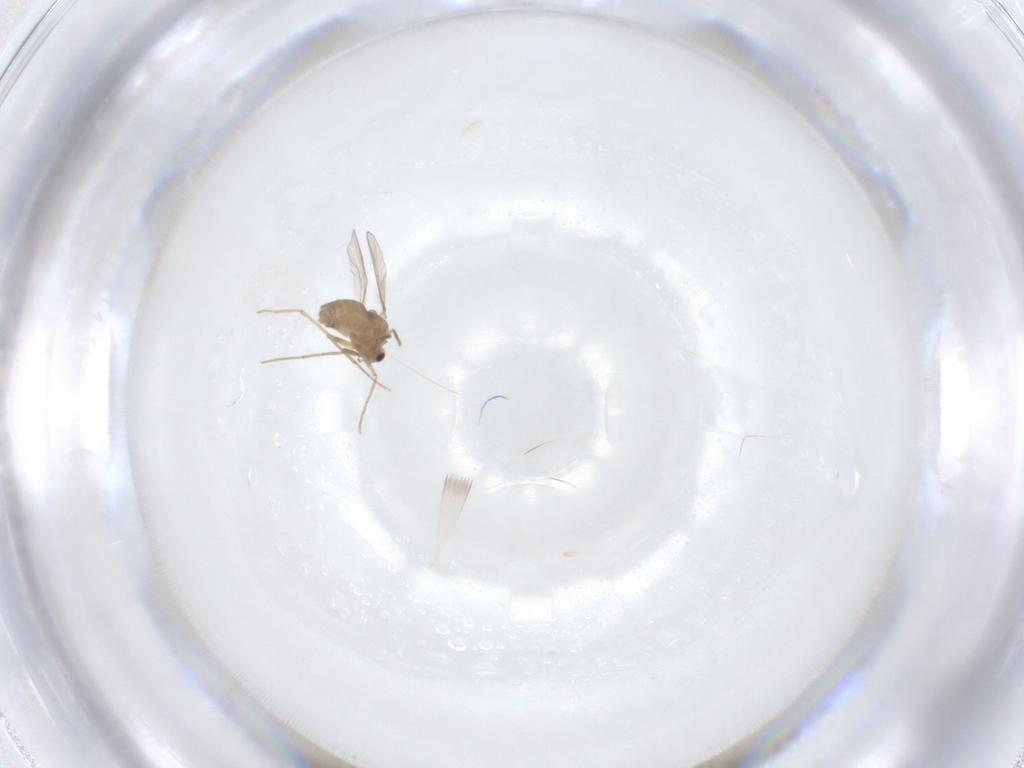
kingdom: Animalia
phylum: Arthropoda
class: Insecta
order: Diptera
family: Chironomidae
